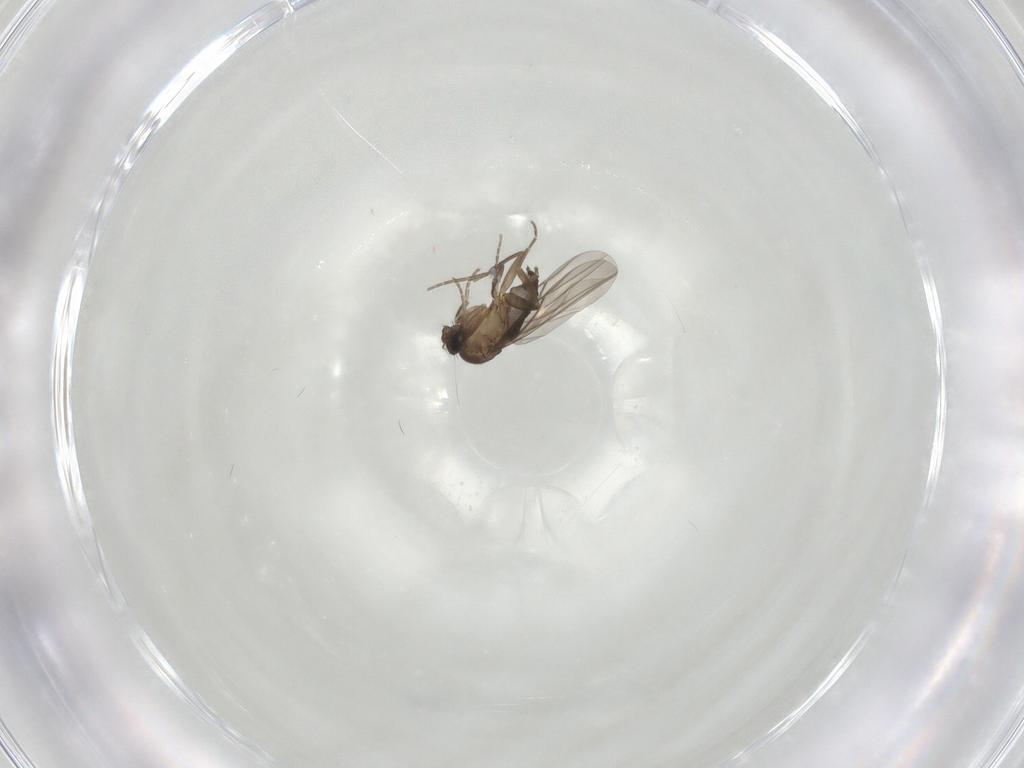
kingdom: Animalia
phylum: Arthropoda
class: Insecta
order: Diptera
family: Phoridae
